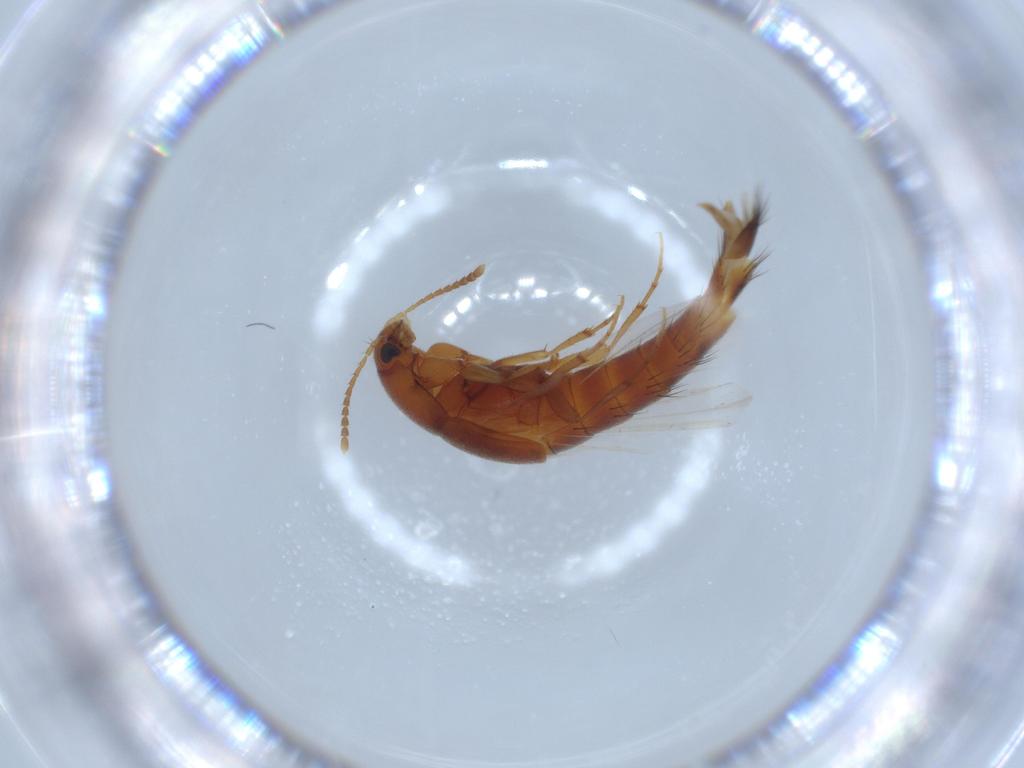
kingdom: Animalia
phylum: Arthropoda
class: Insecta
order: Coleoptera
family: Staphylinidae
